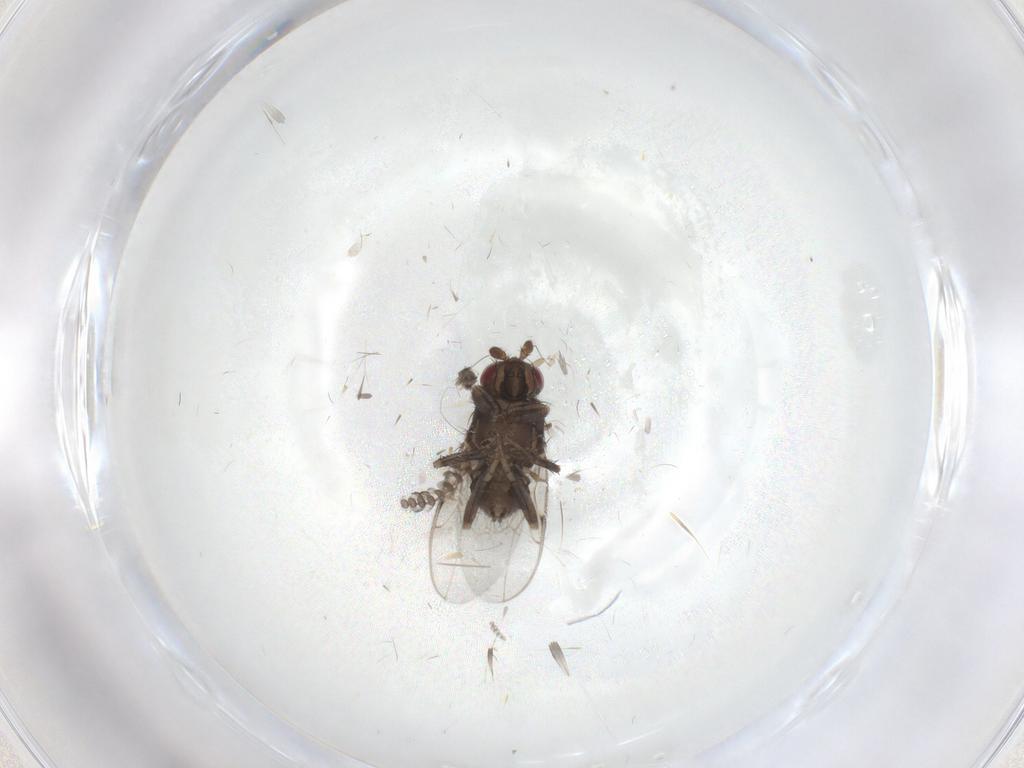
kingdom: Animalia
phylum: Arthropoda
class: Insecta
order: Diptera
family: Sphaeroceridae
